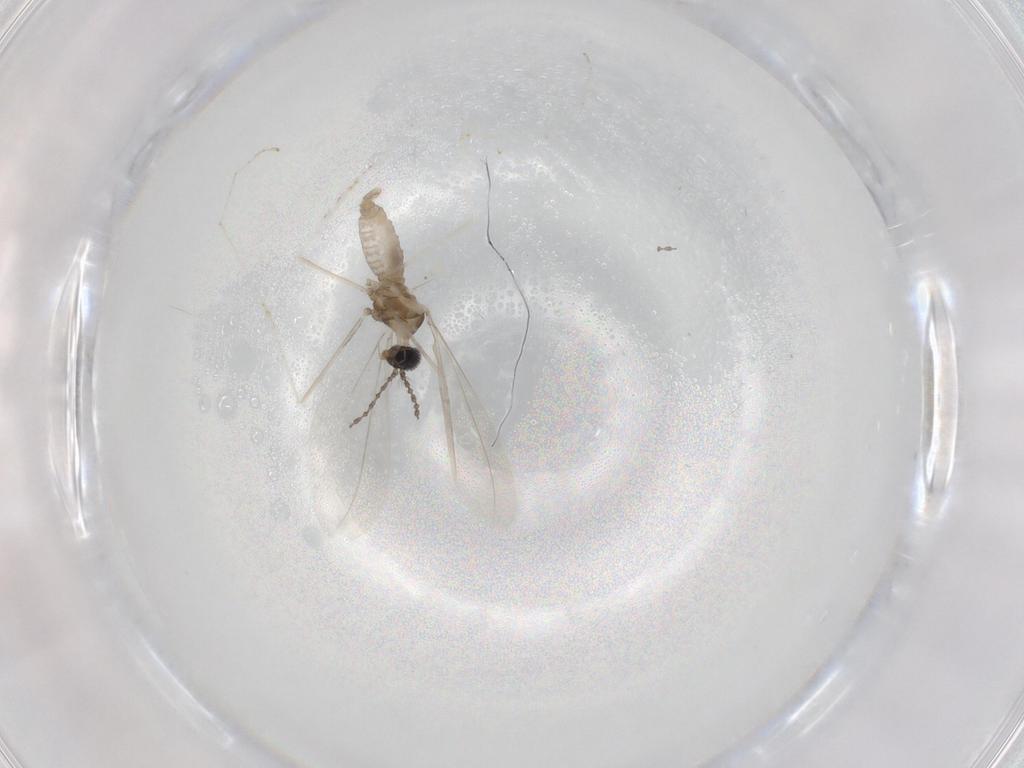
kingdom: Animalia
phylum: Arthropoda
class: Insecta
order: Diptera
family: Cecidomyiidae
